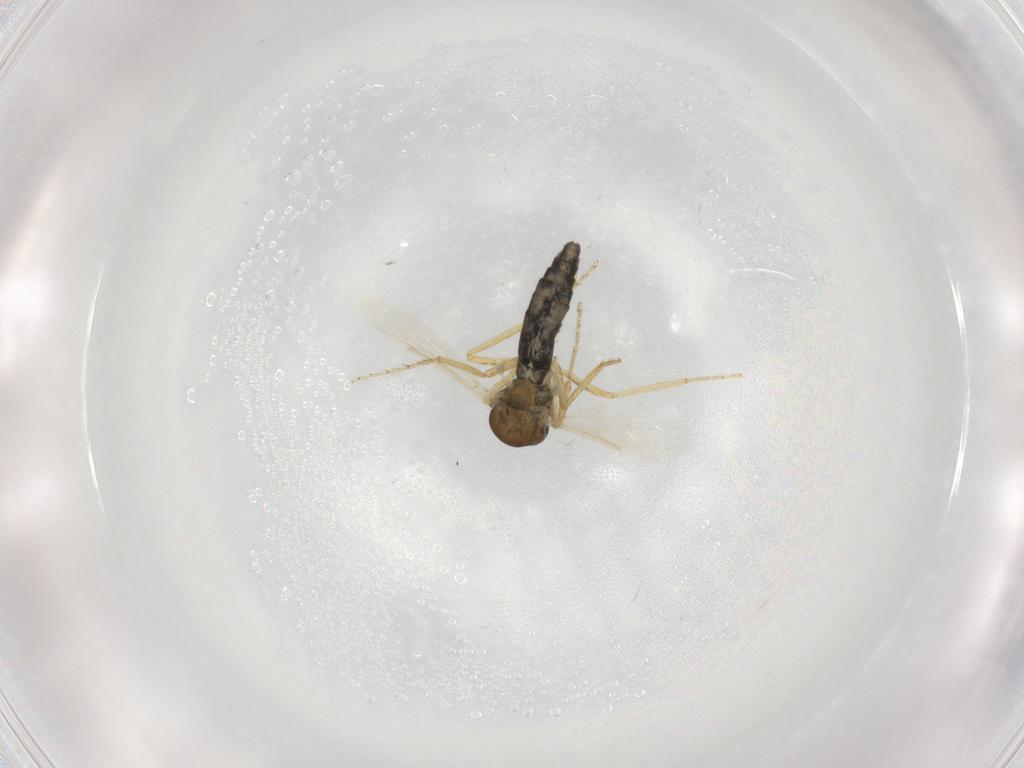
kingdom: Animalia
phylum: Arthropoda
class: Insecta
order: Diptera
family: Ceratopogonidae
